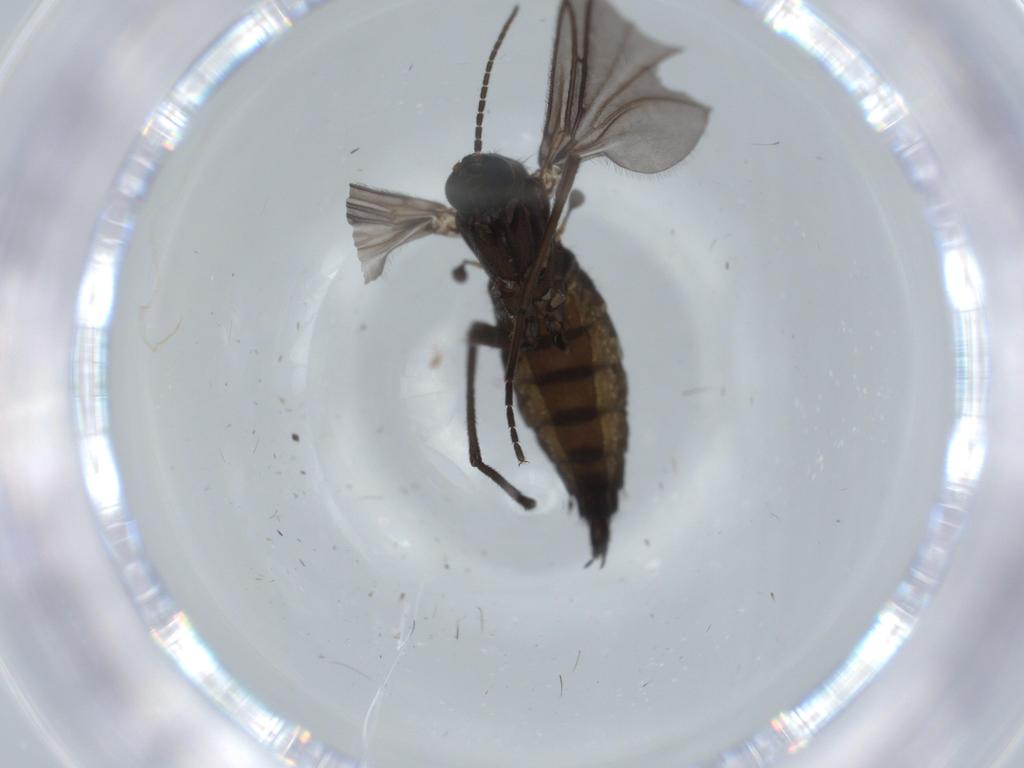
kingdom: Animalia
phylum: Arthropoda
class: Insecta
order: Diptera
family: Sciaridae
